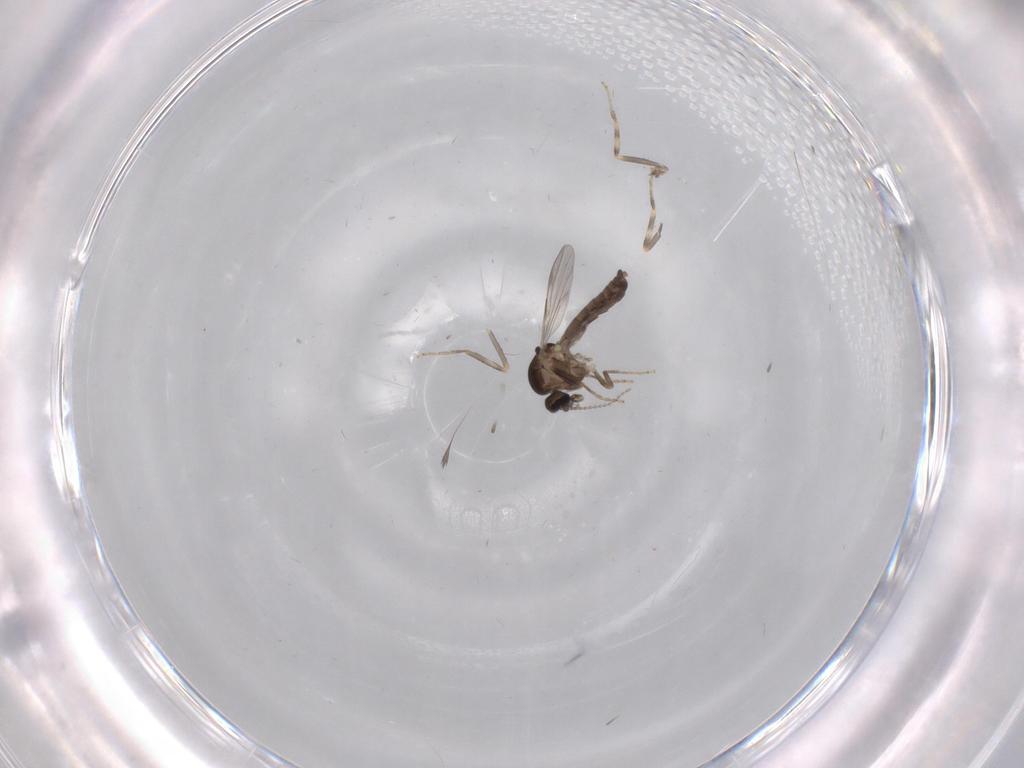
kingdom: Animalia
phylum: Arthropoda
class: Insecta
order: Diptera
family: Ceratopogonidae
